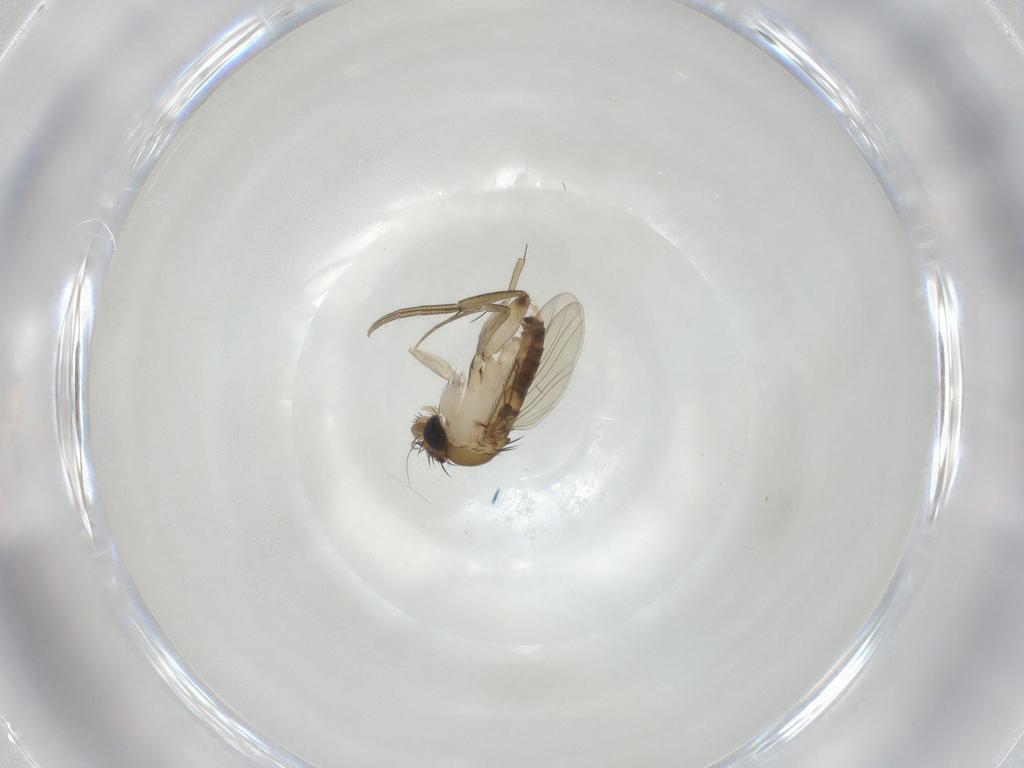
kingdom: Animalia
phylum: Arthropoda
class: Insecta
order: Diptera
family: Phoridae
